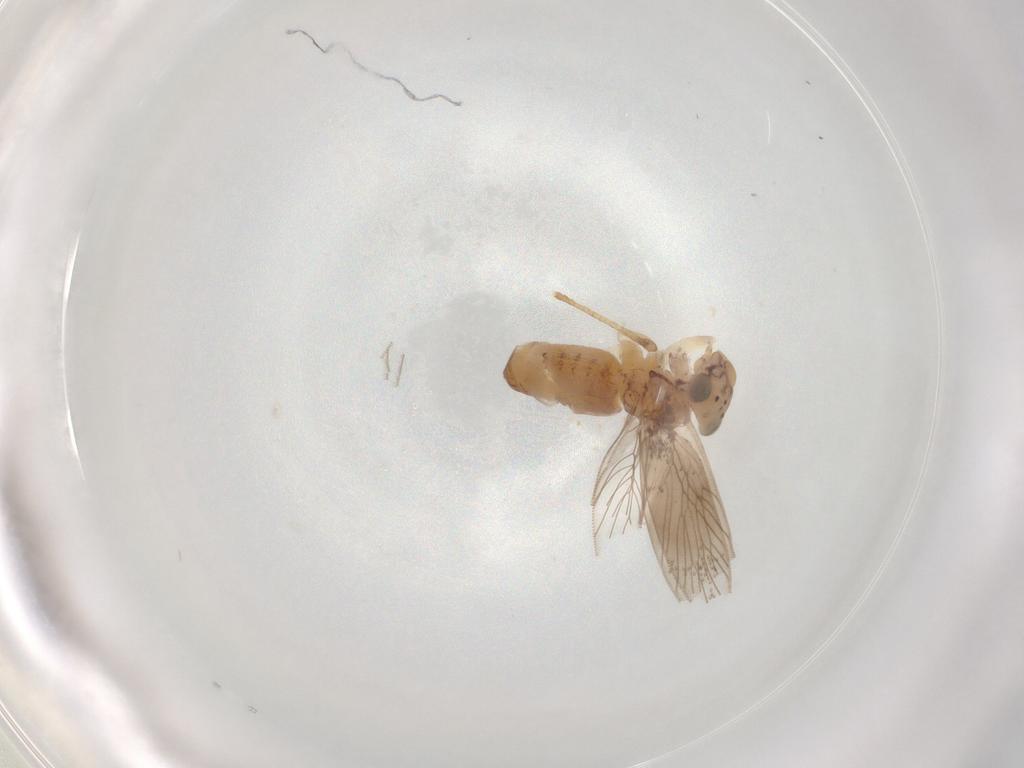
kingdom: Animalia
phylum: Arthropoda
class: Insecta
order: Psocodea
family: Lepidopsocidae
